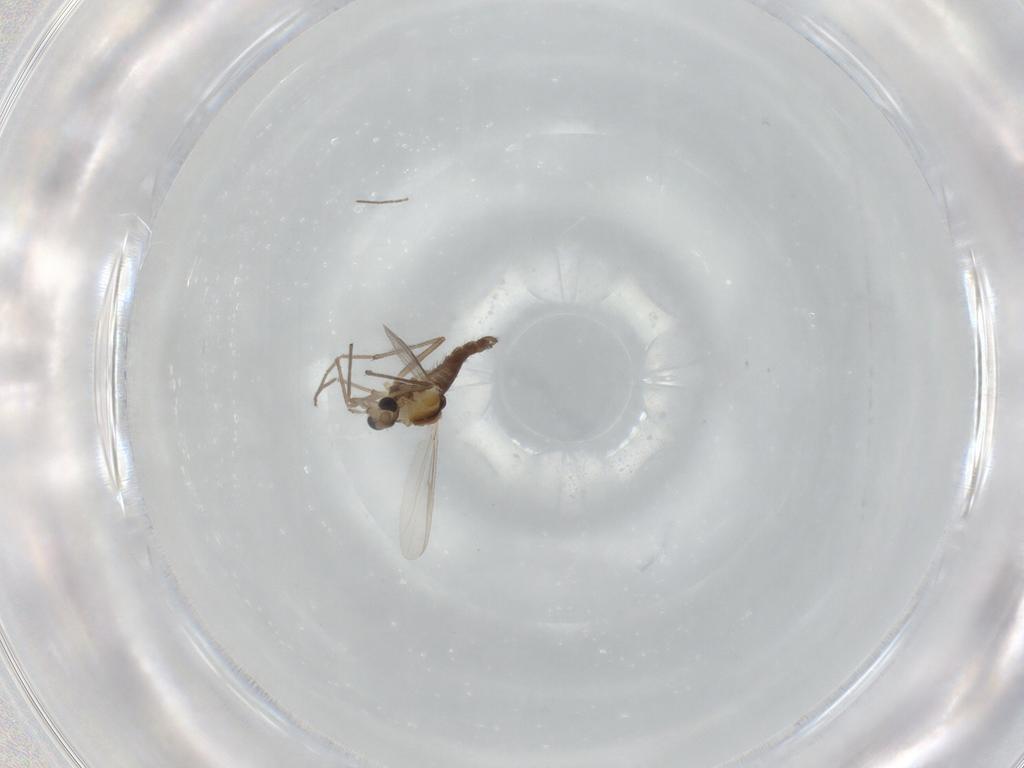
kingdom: Animalia
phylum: Arthropoda
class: Insecta
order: Diptera
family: Chironomidae
